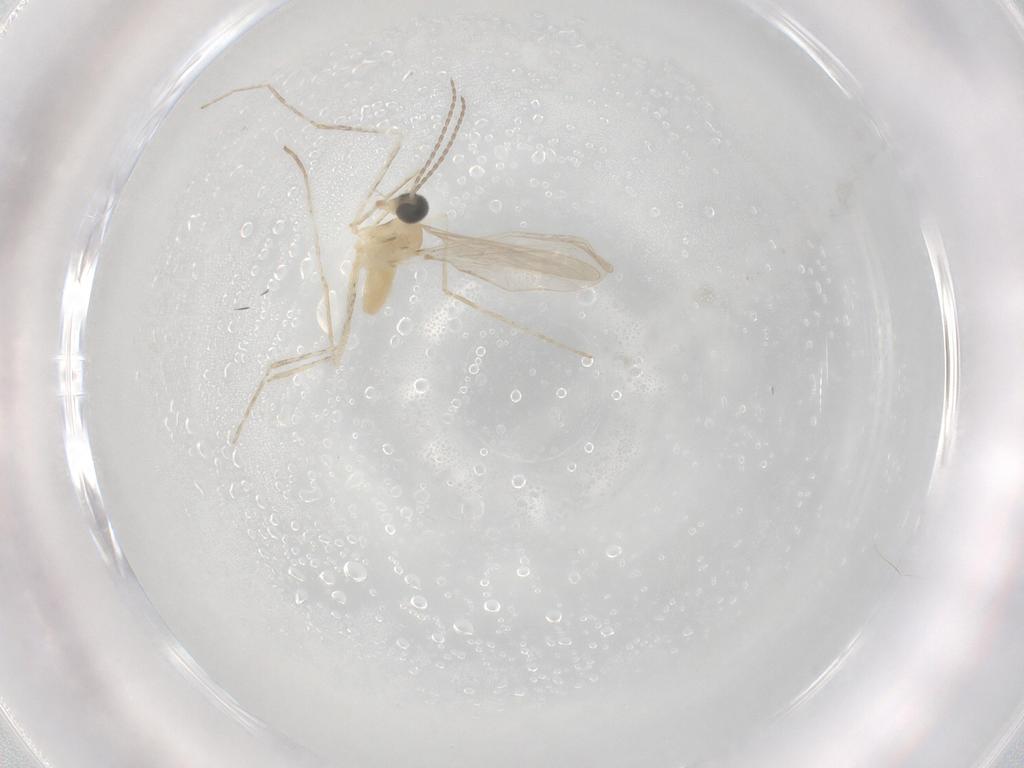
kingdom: Animalia
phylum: Arthropoda
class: Insecta
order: Diptera
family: Cecidomyiidae
